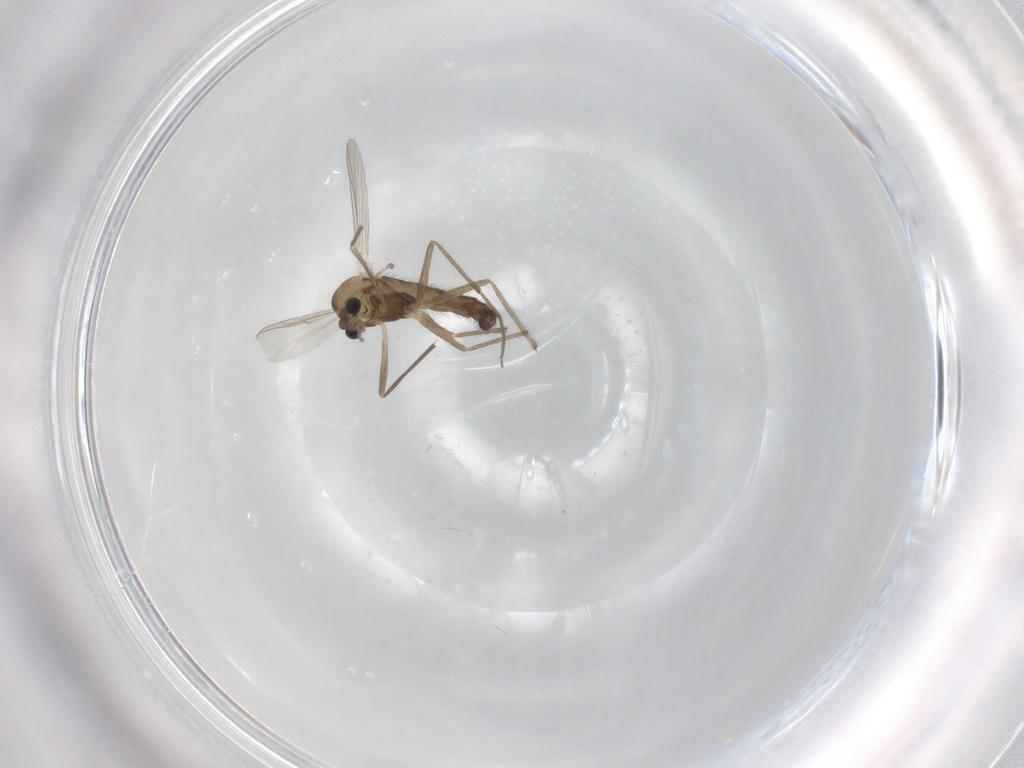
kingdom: Animalia
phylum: Arthropoda
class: Insecta
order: Diptera
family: Chironomidae
